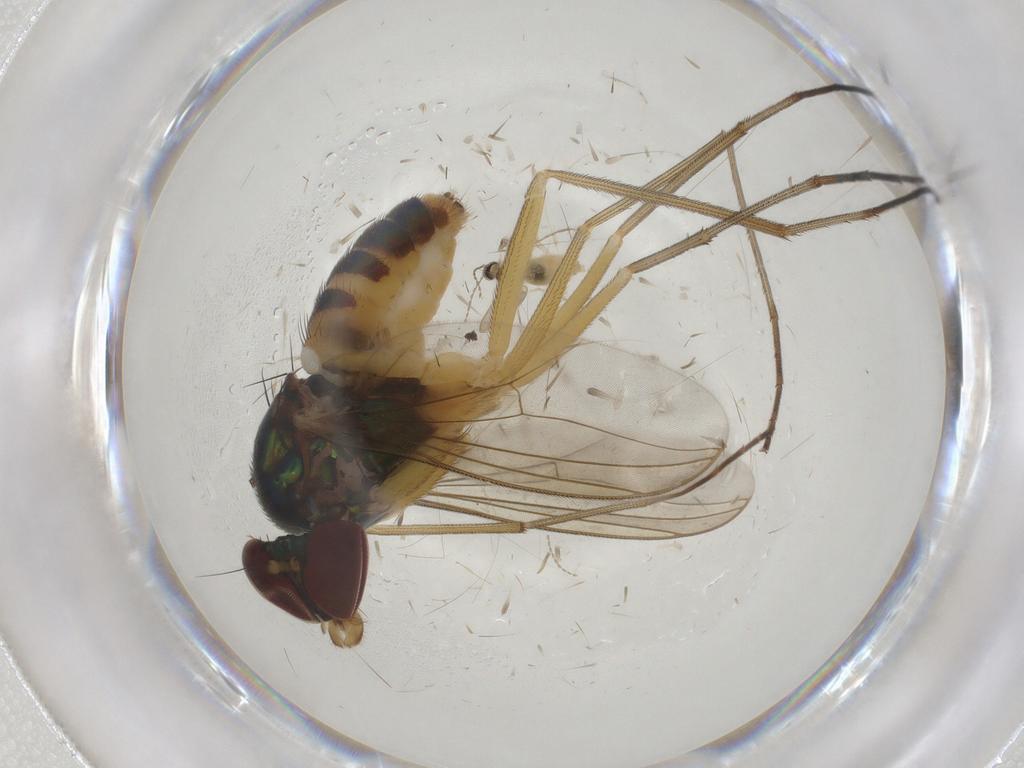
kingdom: Animalia
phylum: Arthropoda
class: Insecta
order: Diptera
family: Dolichopodidae
